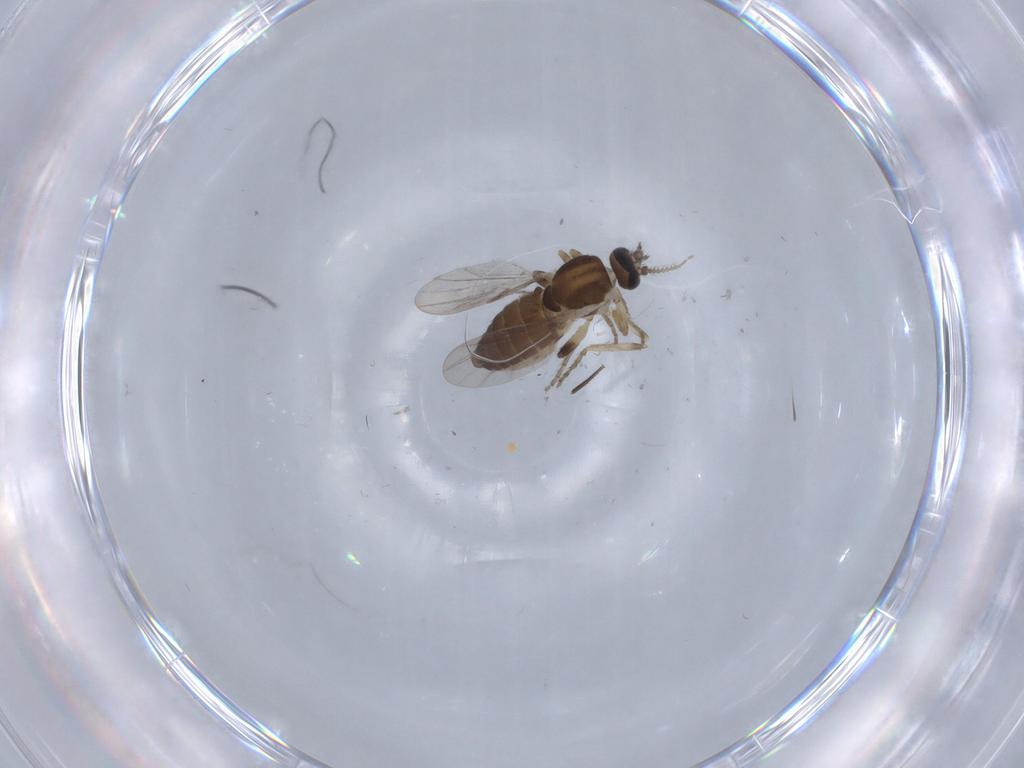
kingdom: Animalia
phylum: Arthropoda
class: Insecta
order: Diptera
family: Ceratopogonidae
